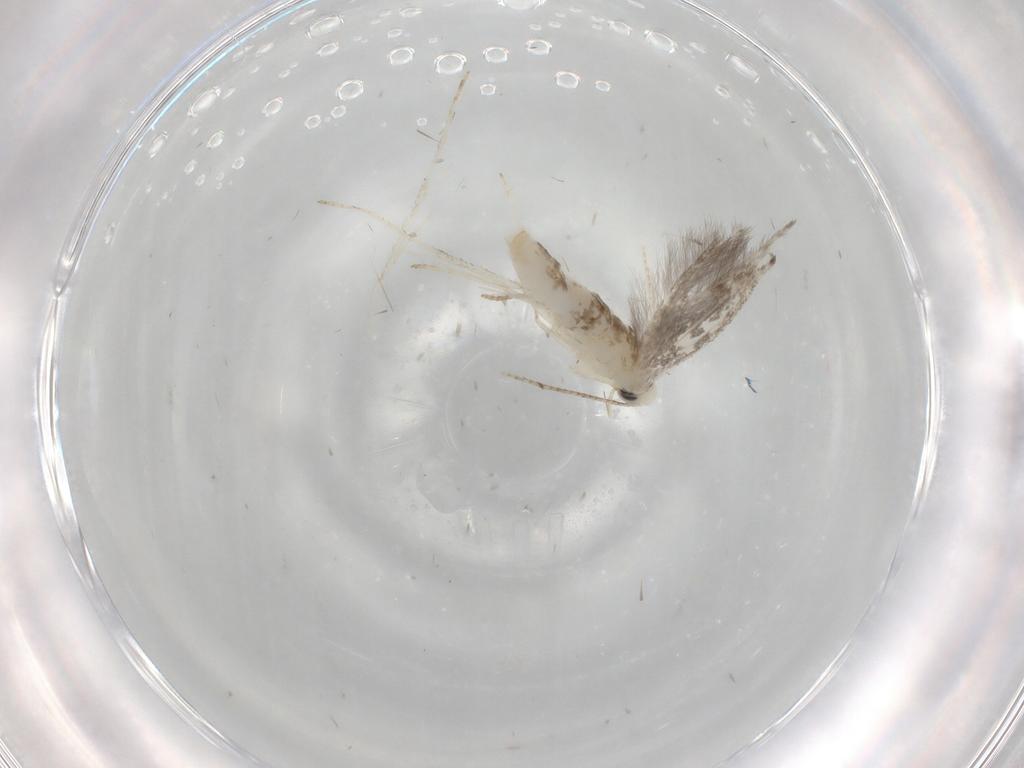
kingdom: Animalia
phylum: Arthropoda
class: Insecta
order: Lepidoptera
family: Nepticulidae
